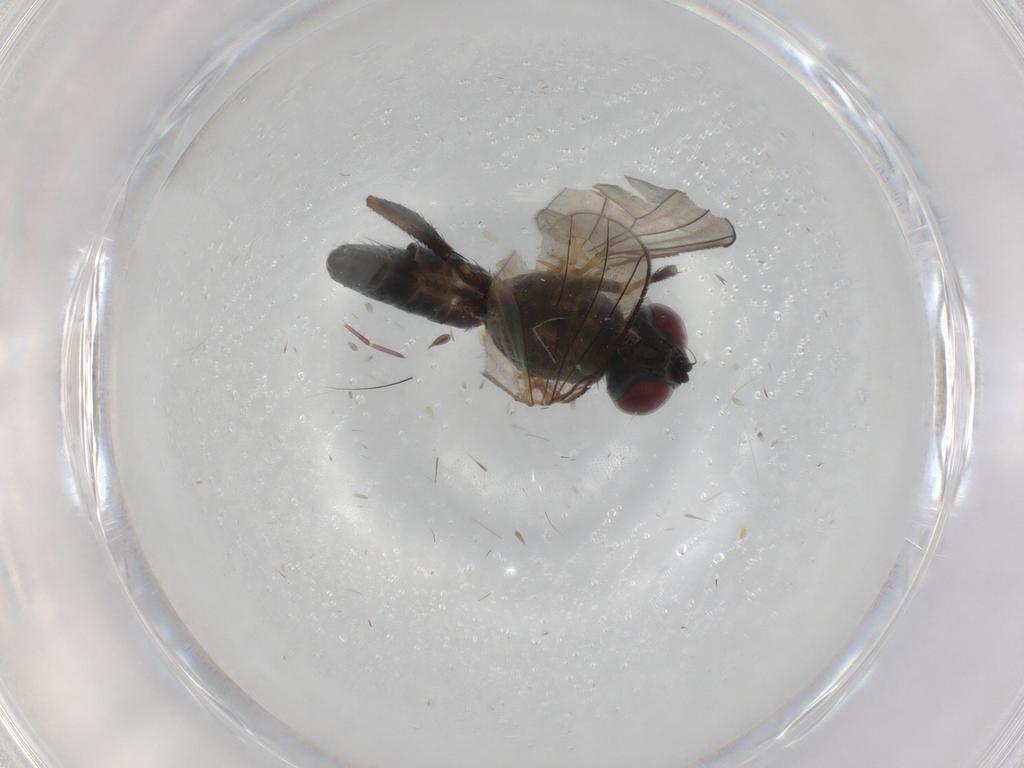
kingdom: Animalia
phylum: Arthropoda
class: Insecta
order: Diptera
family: Muscidae
